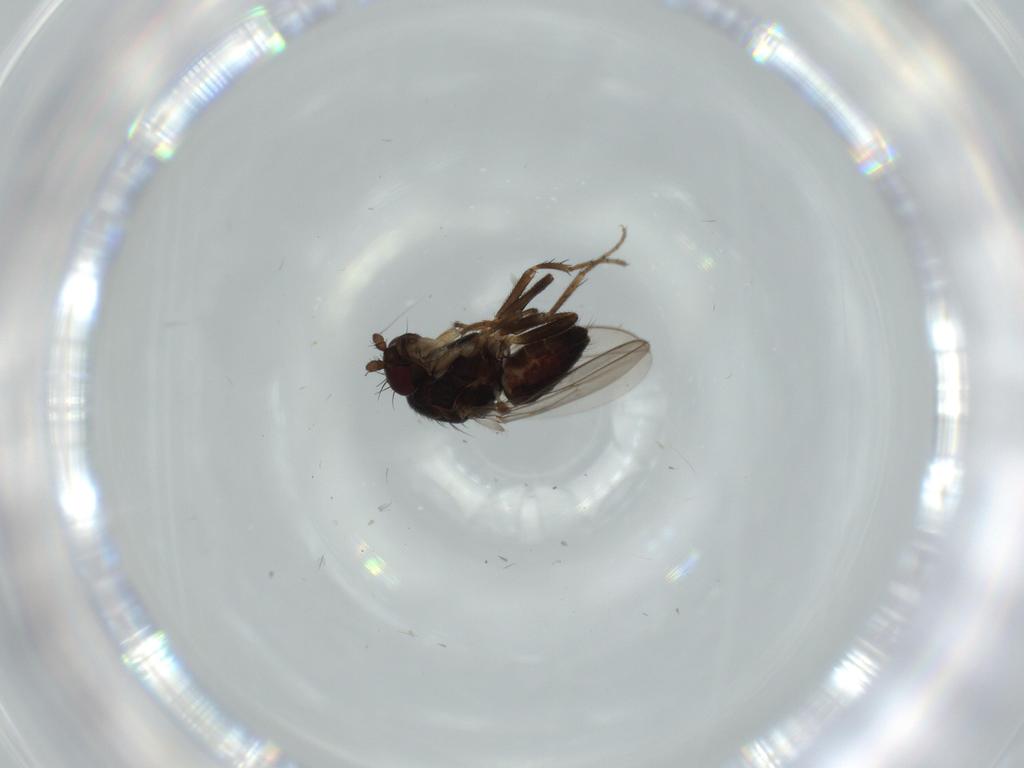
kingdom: Animalia
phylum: Arthropoda
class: Insecta
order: Diptera
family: Sphaeroceridae
